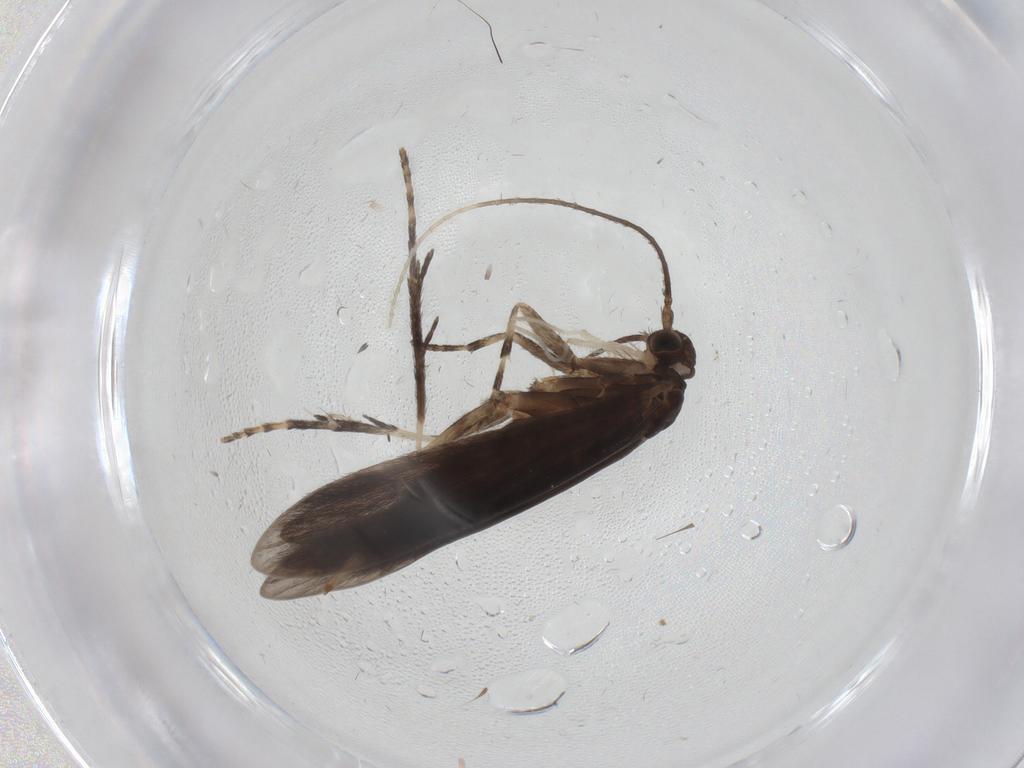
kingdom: Animalia
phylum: Arthropoda
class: Insecta
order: Trichoptera
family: Xiphocentronidae
